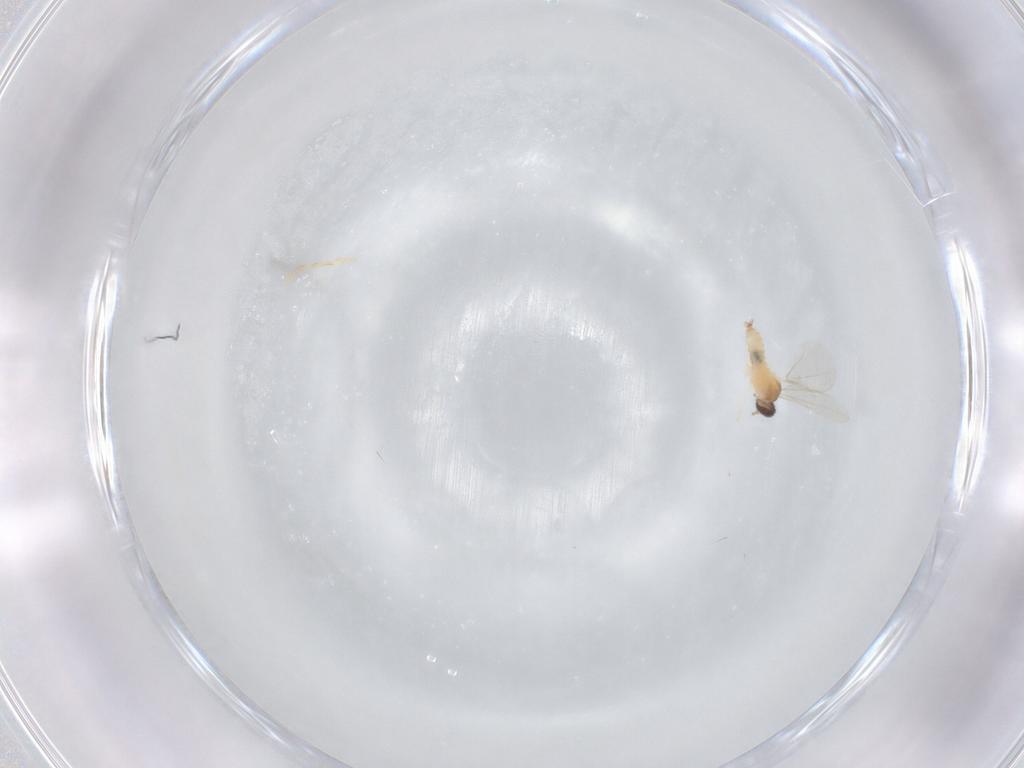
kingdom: Animalia
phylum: Arthropoda
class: Insecta
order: Diptera
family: Cecidomyiidae
